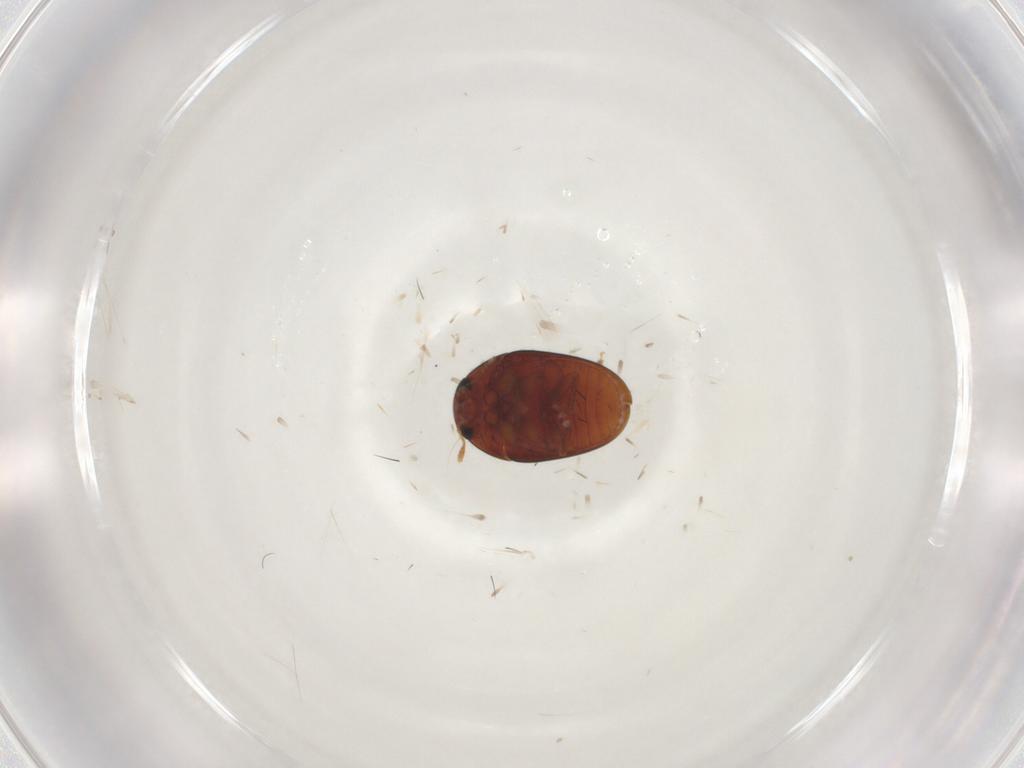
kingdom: Animalia
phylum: Arthropoda
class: Insecta
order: Coleoptera
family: Phalacridae
